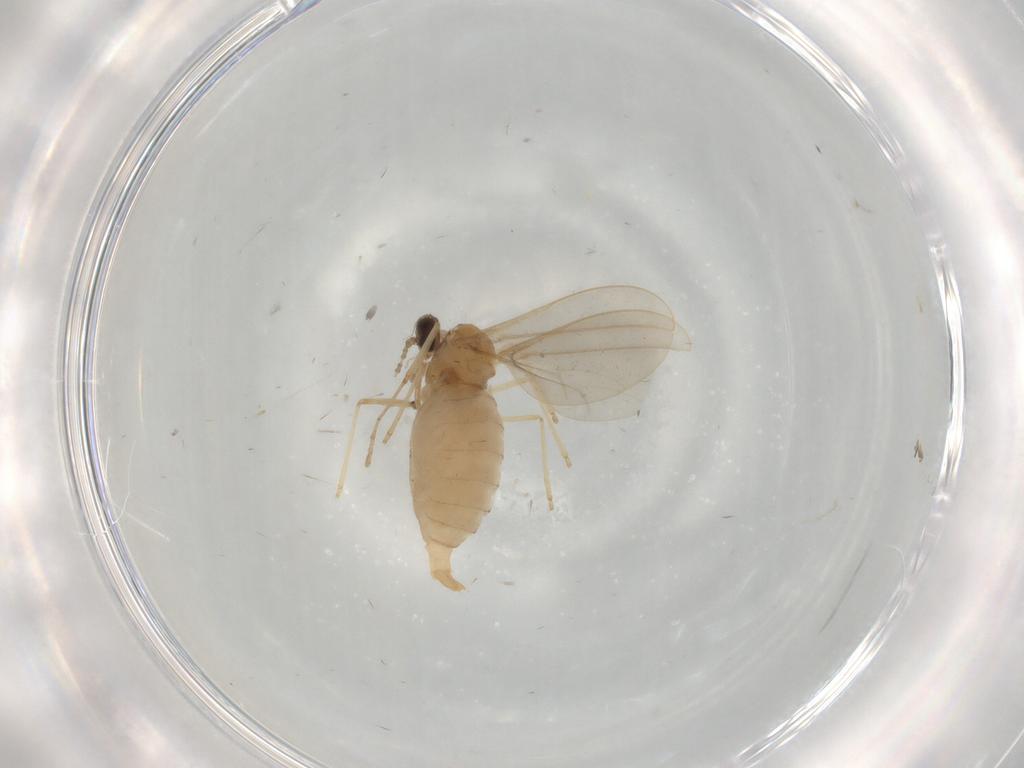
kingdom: Animalia
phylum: Arthropoda
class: Insecta
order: Diptera
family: Cecidomyiidae
